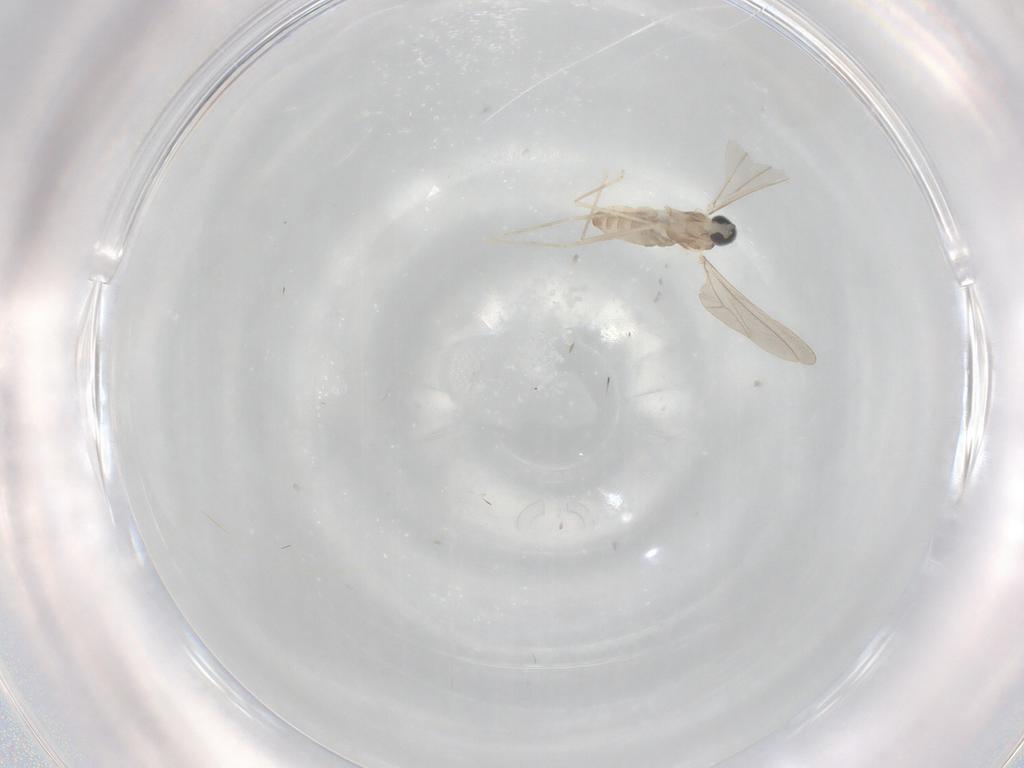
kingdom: Animalia
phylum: Arthropoda
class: Insecta
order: Diptera
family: Cecidomyiidae
